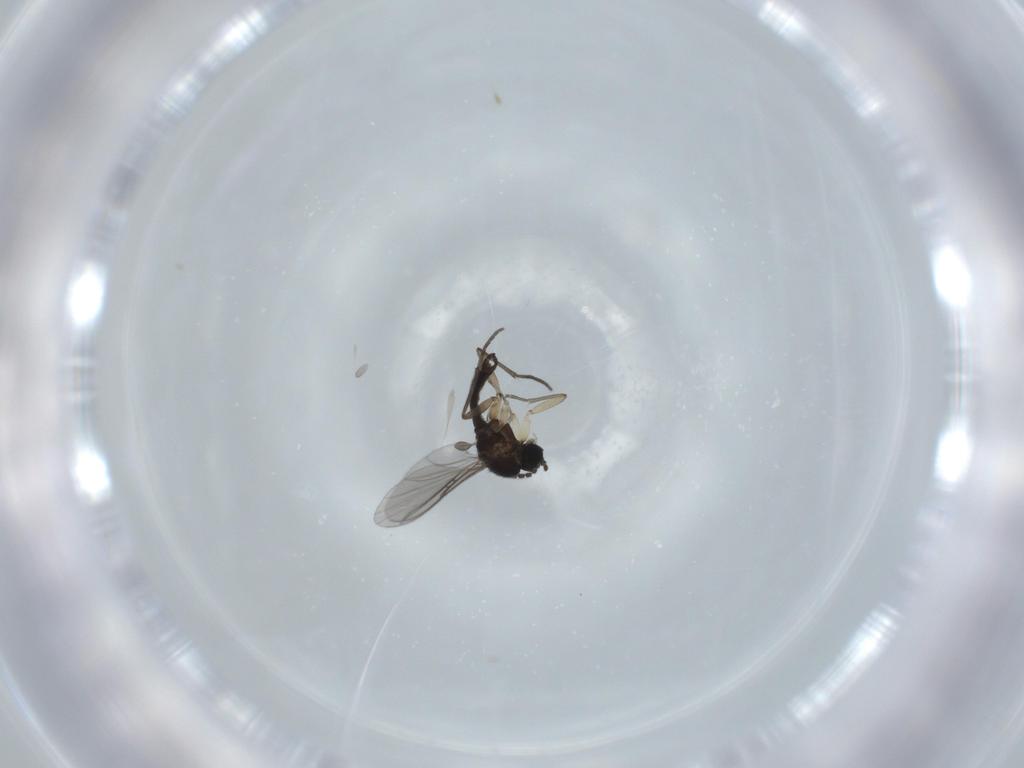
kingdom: Animalia
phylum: Arthropoda
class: Insecta
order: Diptera
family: Sciaridae
